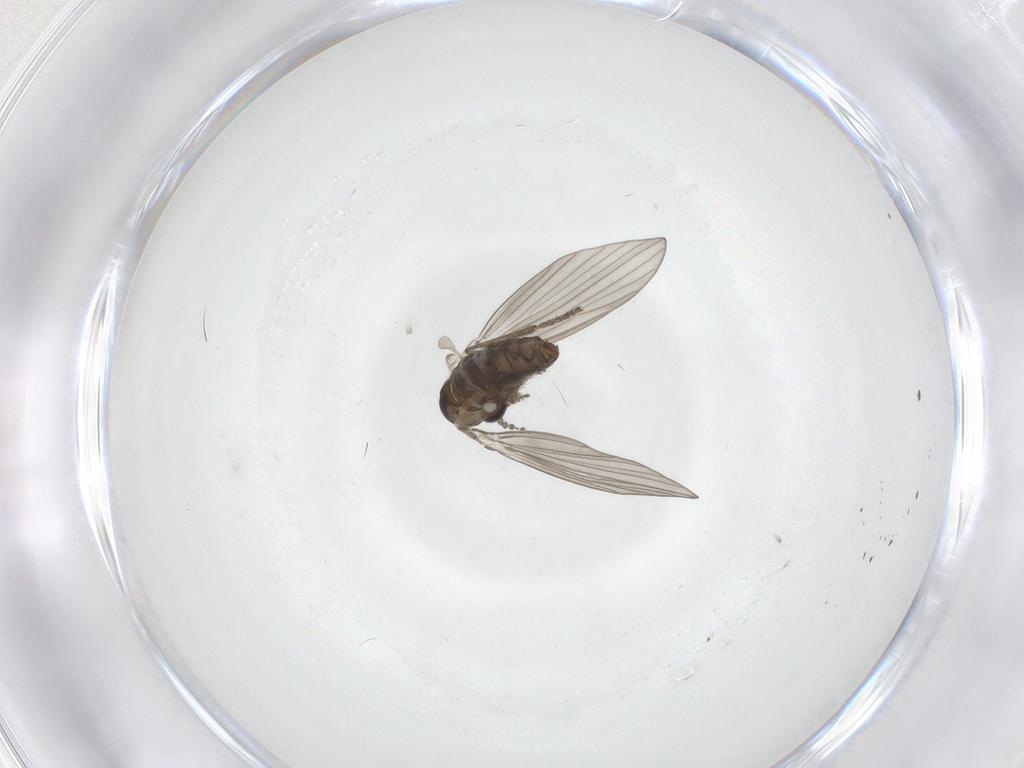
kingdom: Animalia
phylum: Arthropoda
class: Insecta
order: Diptera
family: Psychodidae
